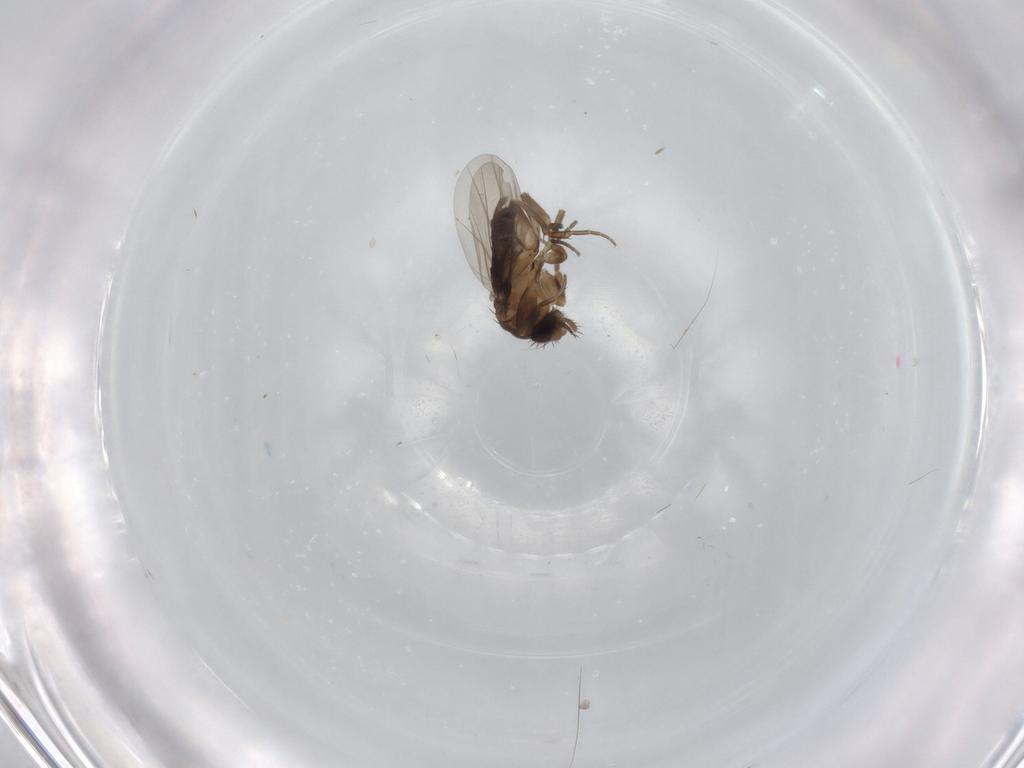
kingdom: Animalia
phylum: Arthropoda
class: Insecta
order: Diptera
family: Phoridae
